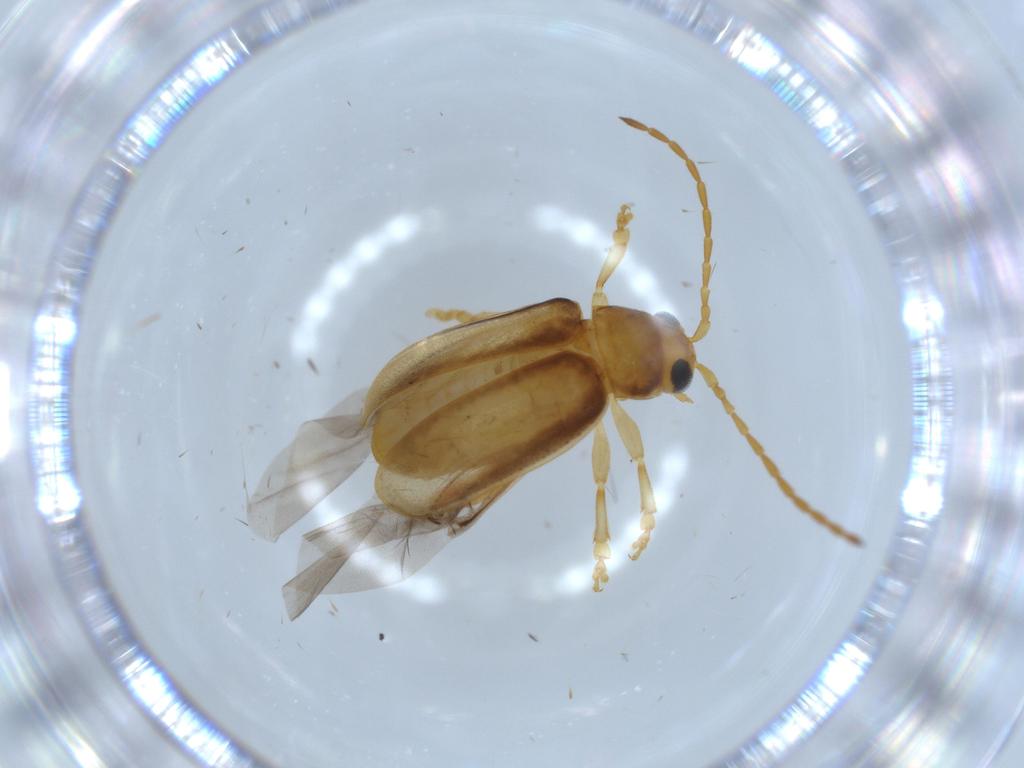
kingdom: Animalia
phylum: Arthropoda
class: Insecta
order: Coleoptera
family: Chrysomelidae
